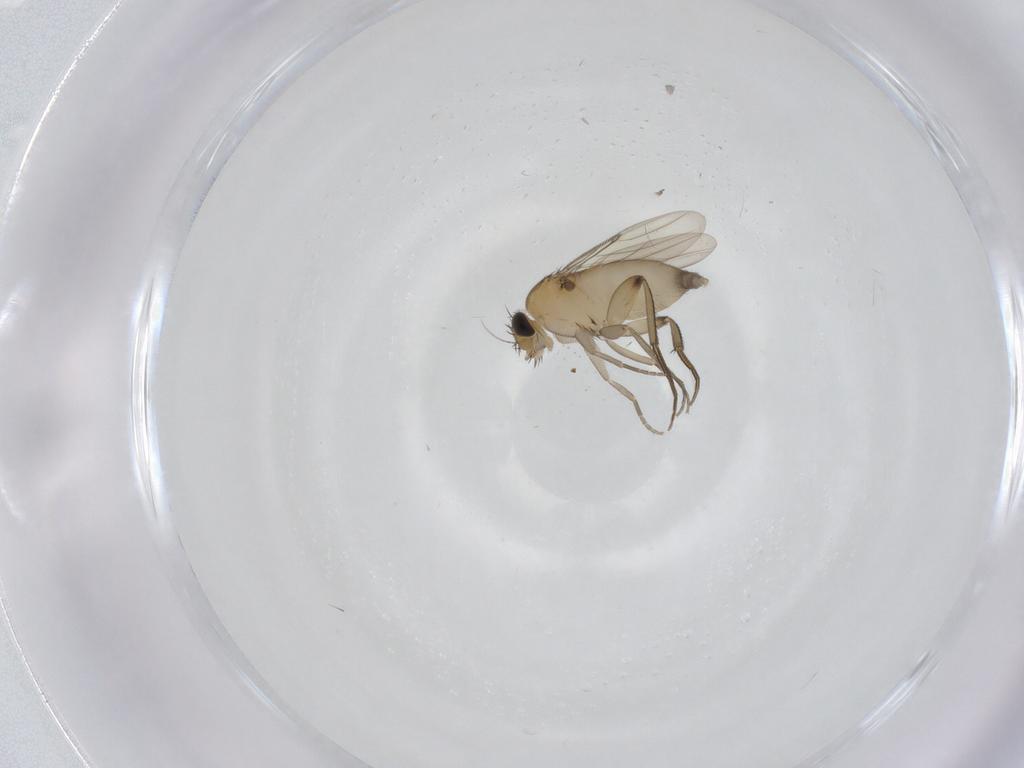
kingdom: Animalia
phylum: Arthropoda
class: Insecta
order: Diptera
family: Phoridae
